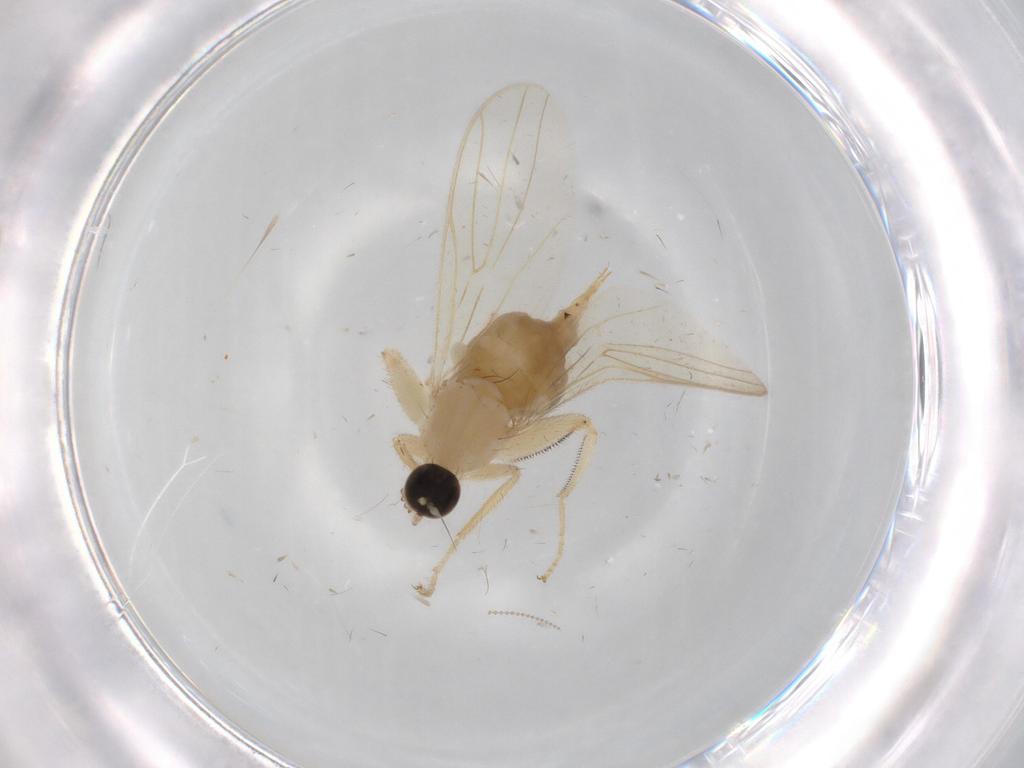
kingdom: Animalia
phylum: Arthropoda
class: Insecta
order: Diptera
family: Hybotidae
